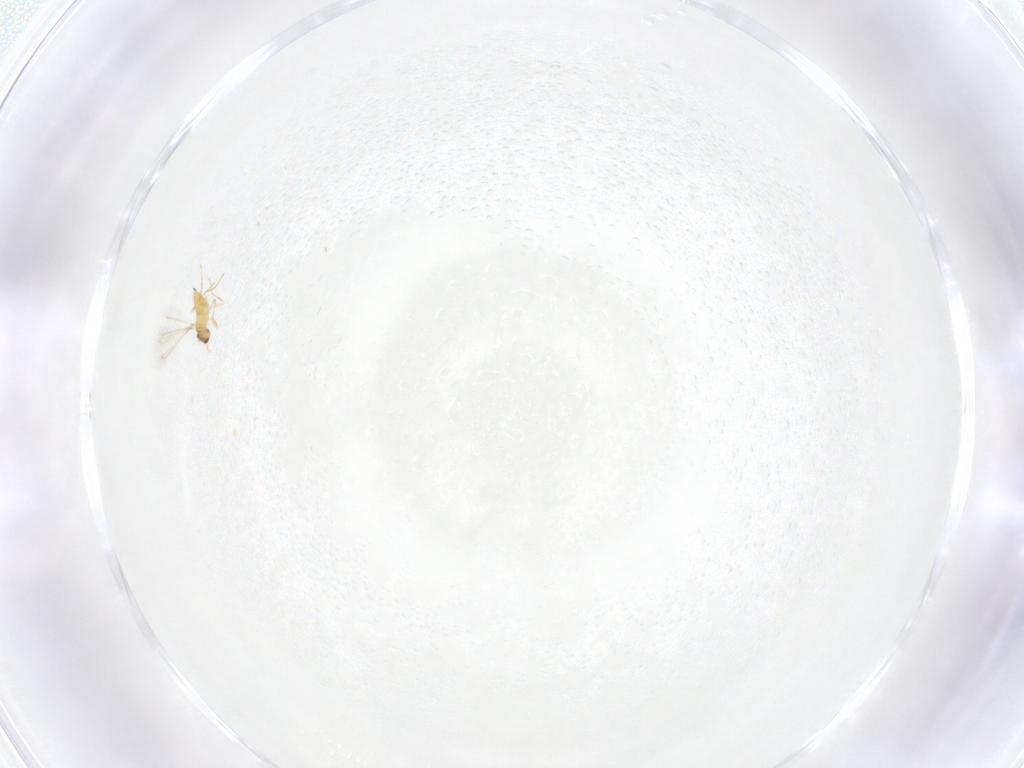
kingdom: Animalia
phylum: Arthropoda
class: Insecta
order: Hymenoptera
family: Mymaridae
